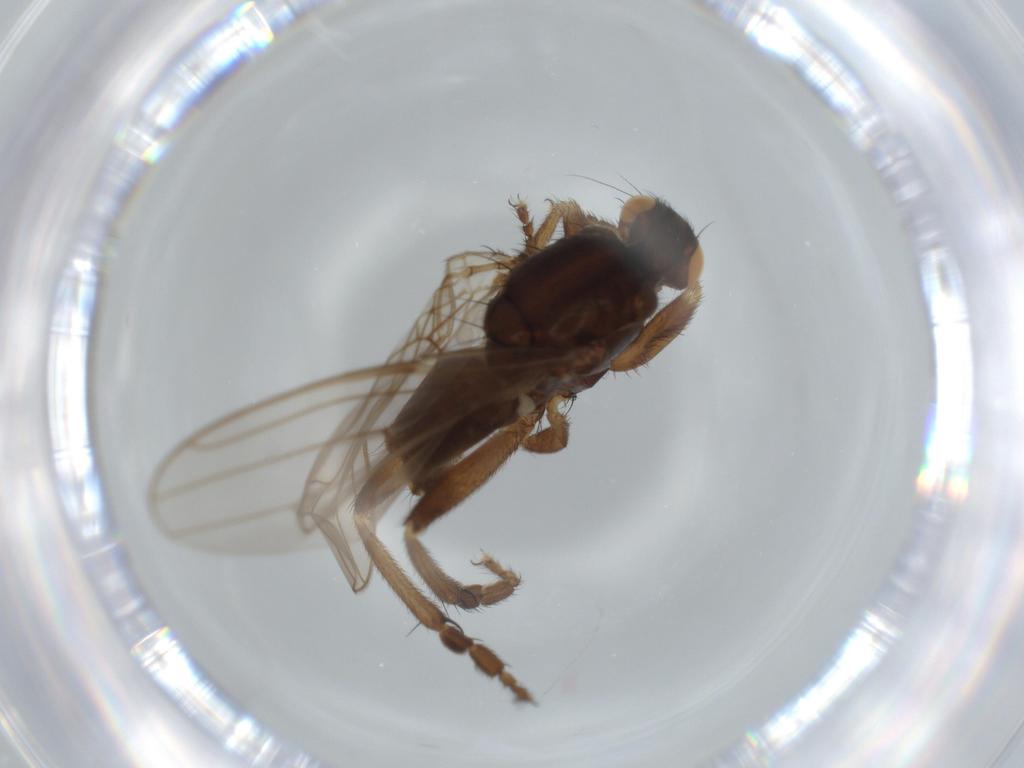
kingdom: Animalia
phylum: Arthropoda
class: Insecta
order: Diptera
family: Sphaeroceridae
